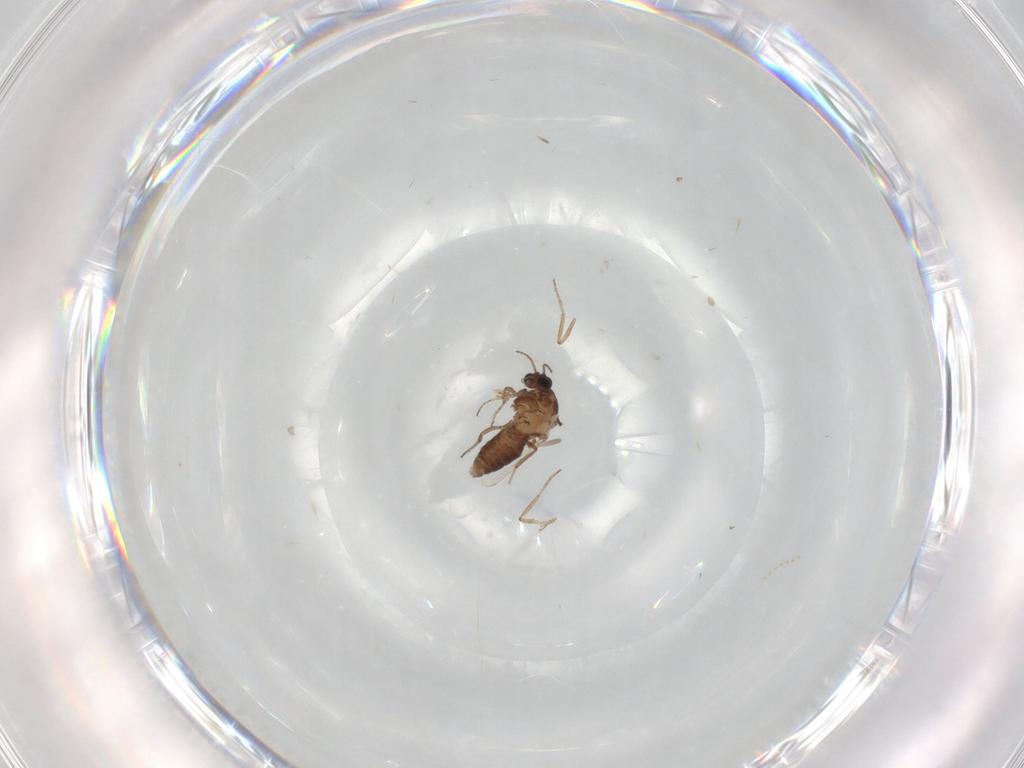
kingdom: Animalia
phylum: Arthropoda
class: Insecta
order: Diptera
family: Ceratopogonidae
